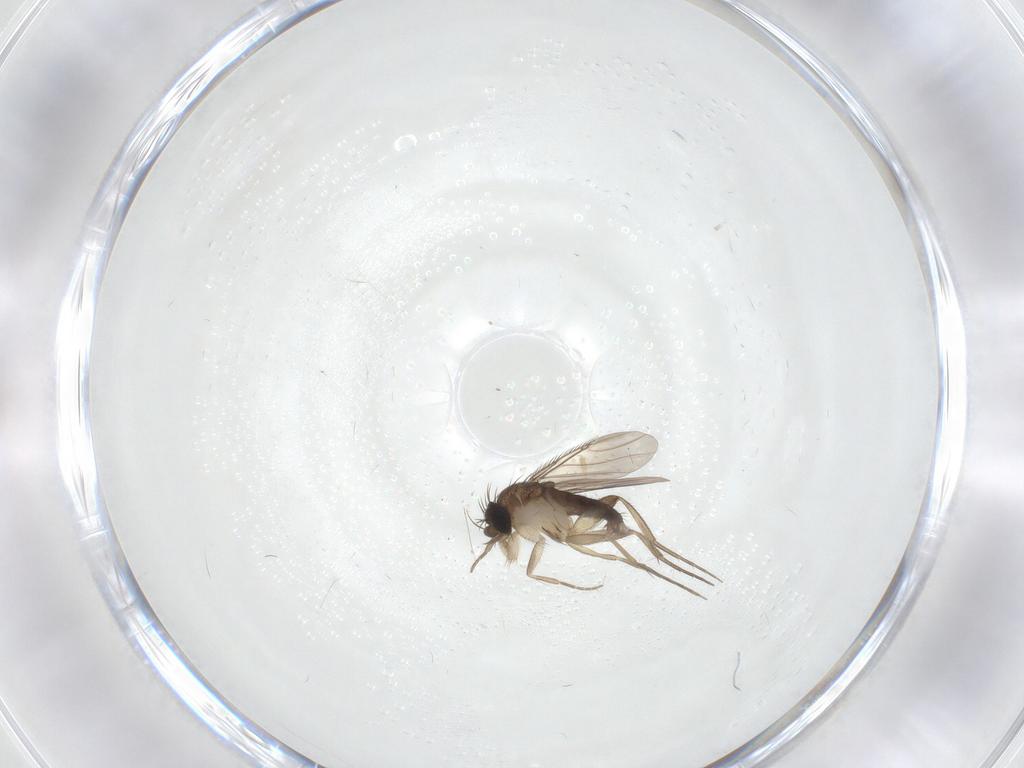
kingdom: Animalia
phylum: Arthropoda
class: Insecta
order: Diptera
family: Phoridae
